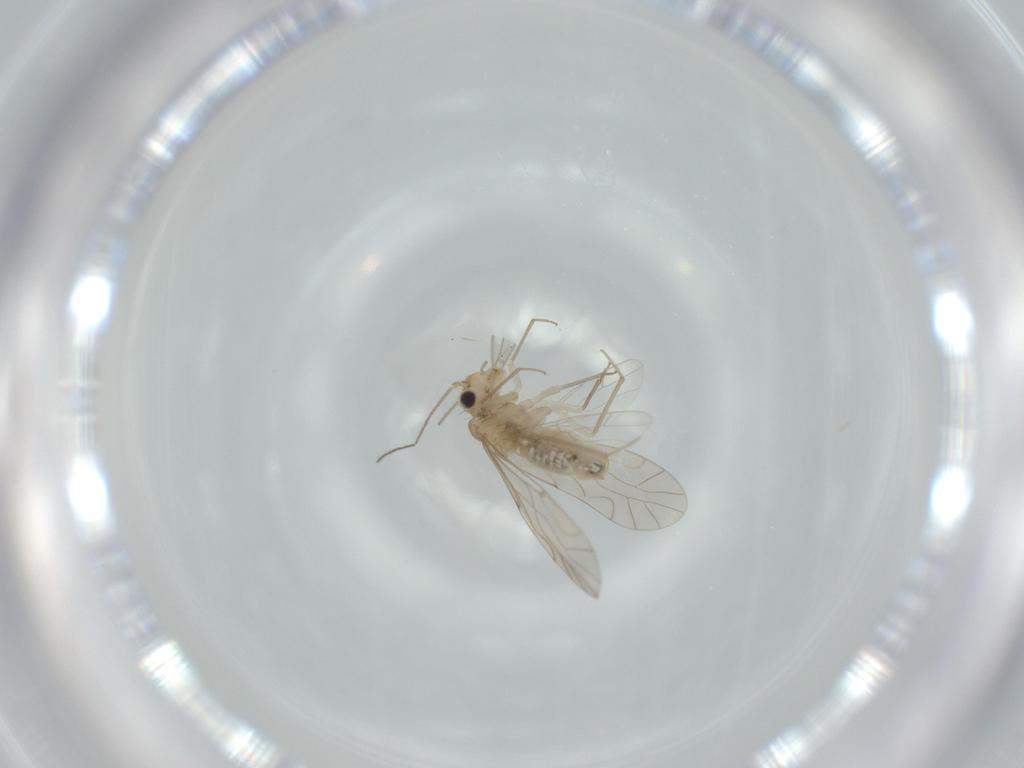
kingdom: Animalia
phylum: Arthropoda
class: Insecta
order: Psocodea
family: Lachesillidae
